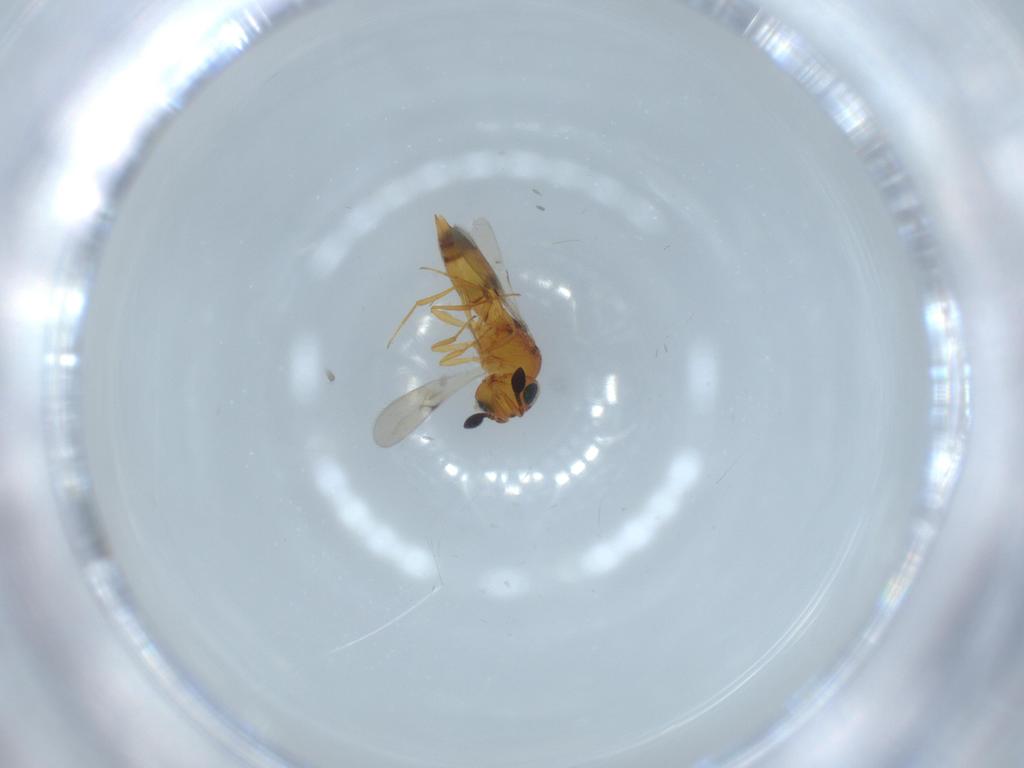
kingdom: Animalia
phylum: Arthropoda
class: Insecta
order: Hymenoptera
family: Scelionidae
